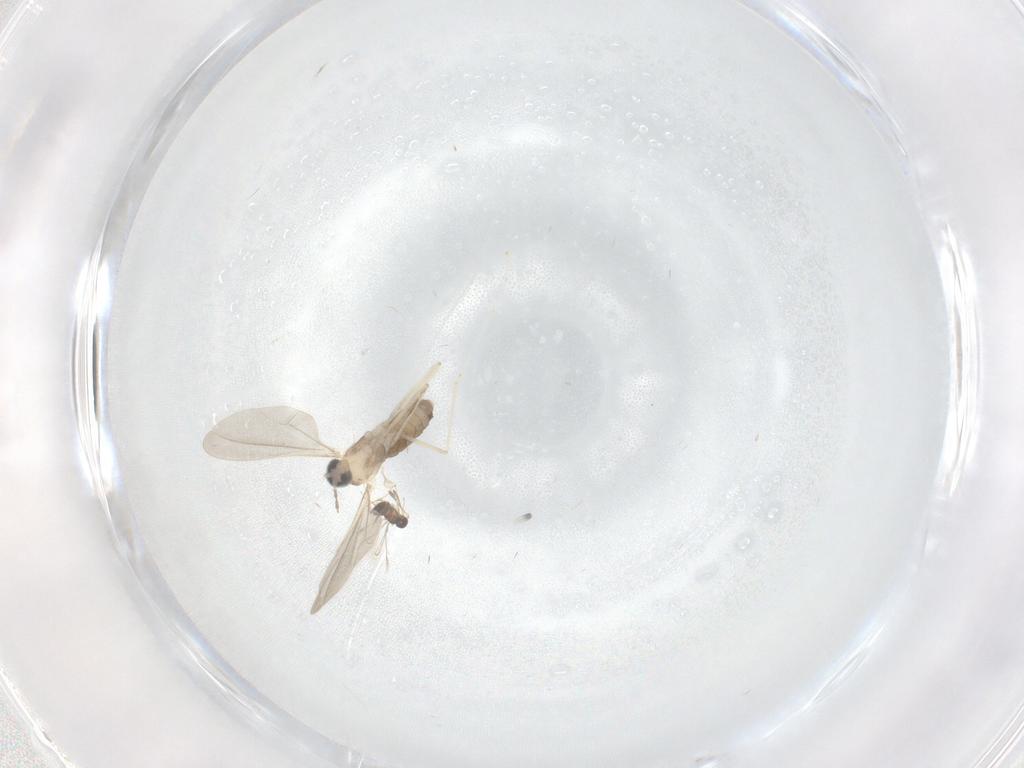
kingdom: Animalia
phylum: Arthropoda
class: Insecta
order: Diptera
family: Cecidomyiidae
